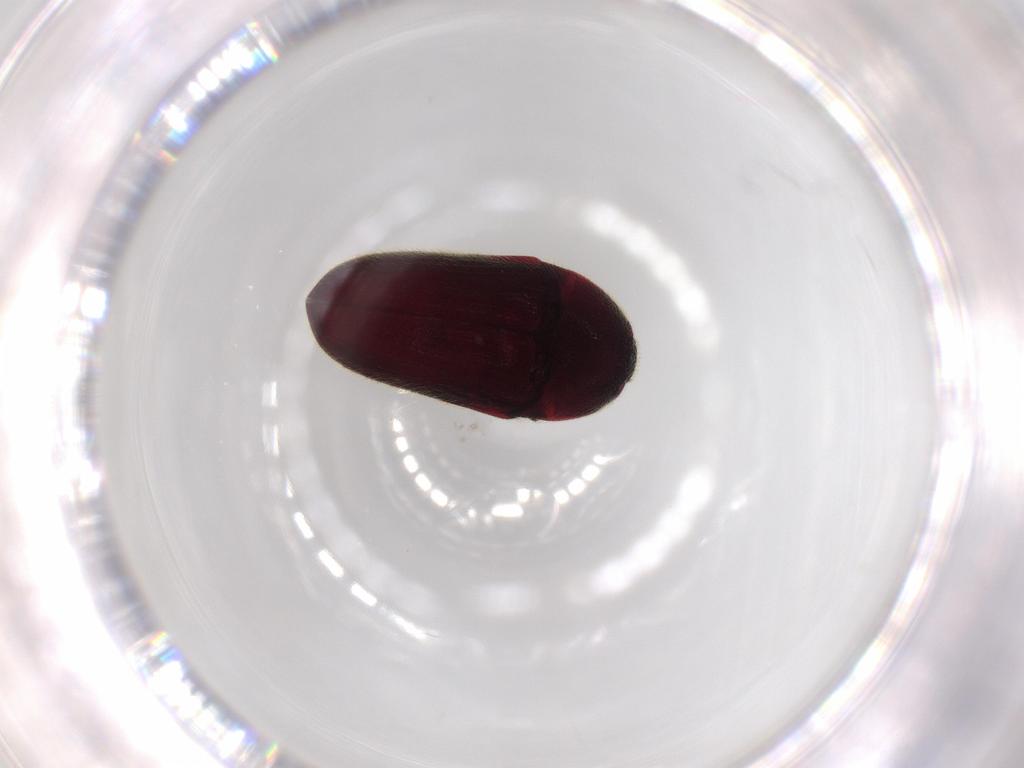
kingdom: Animalia
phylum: Arthropoda
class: Insecta
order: Coleoptera
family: Throscidae
